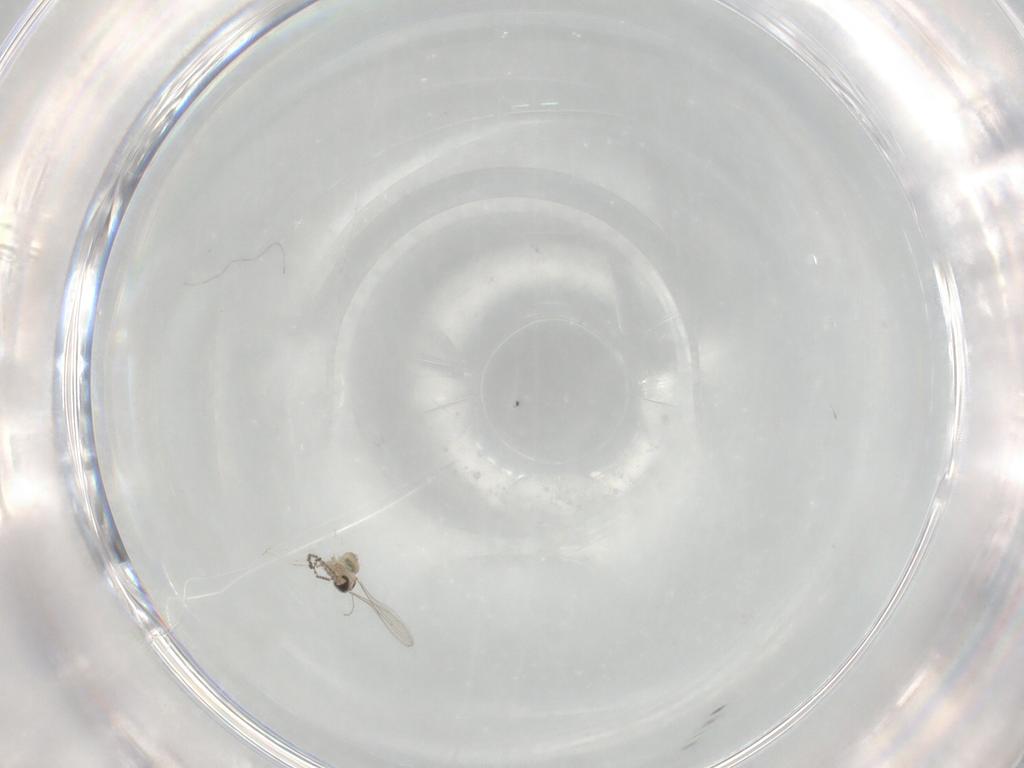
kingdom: Animalia
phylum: Arthropoda
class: Insecta
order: Diptera
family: Chironomidae
